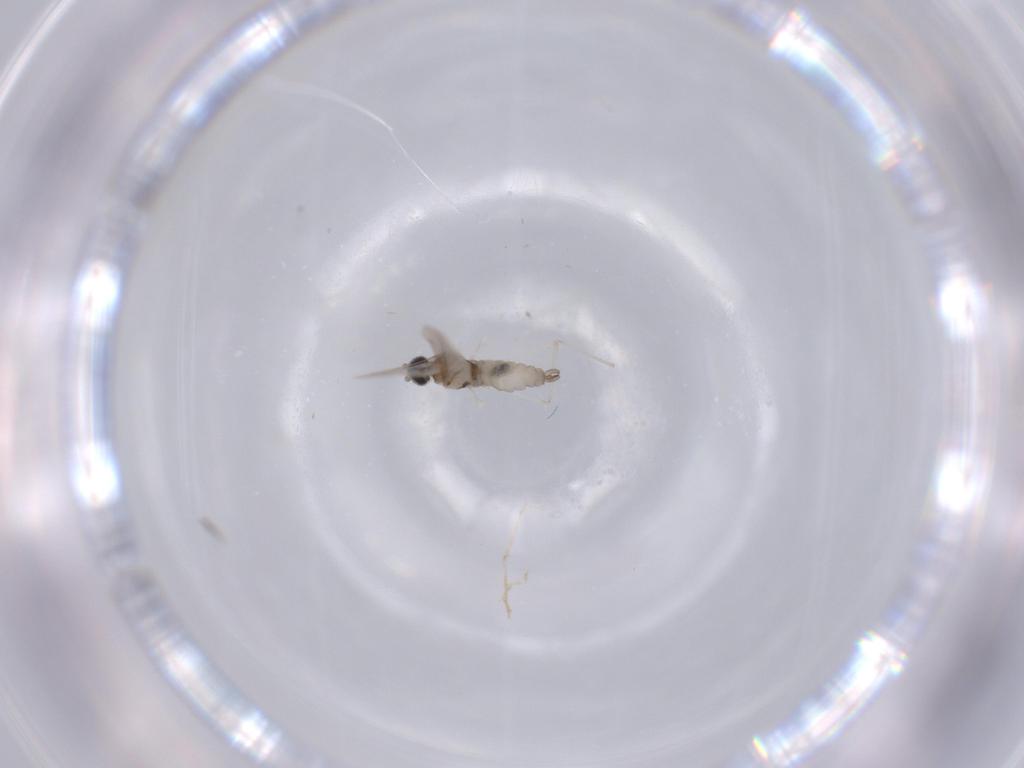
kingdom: Animalia
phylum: Arthropoda
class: Insecta
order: Diptera
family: Cecidomyiidae
